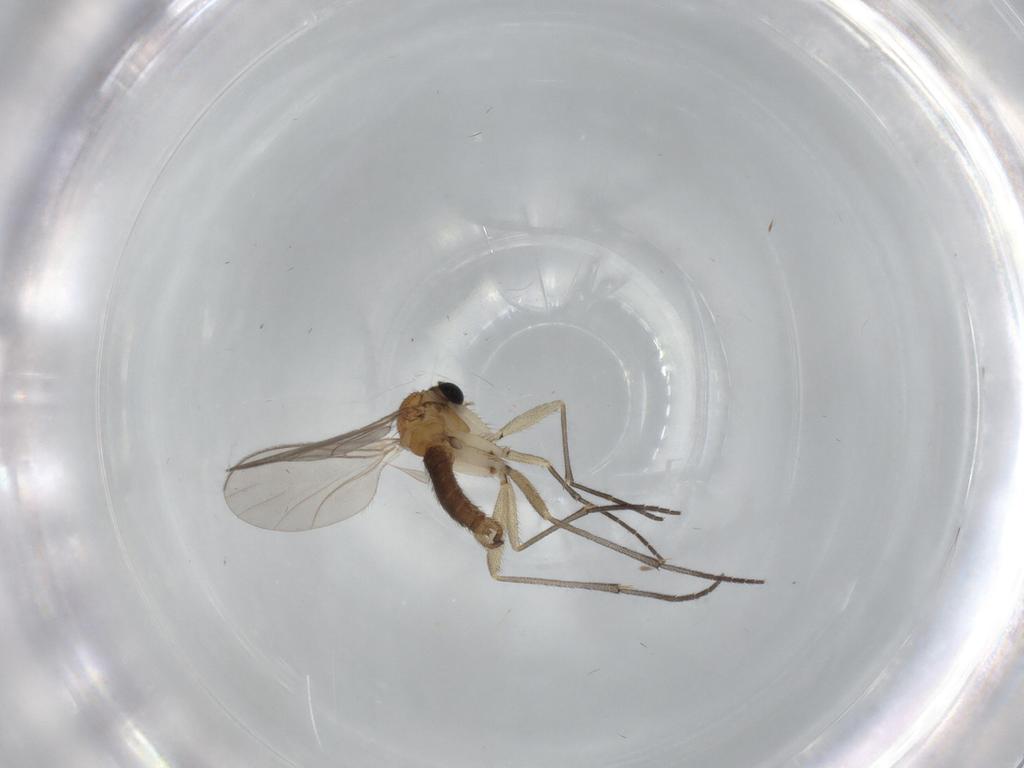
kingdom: Animalia
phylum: Arthropoda
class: Insecta
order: Diptera
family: Sciaridae
